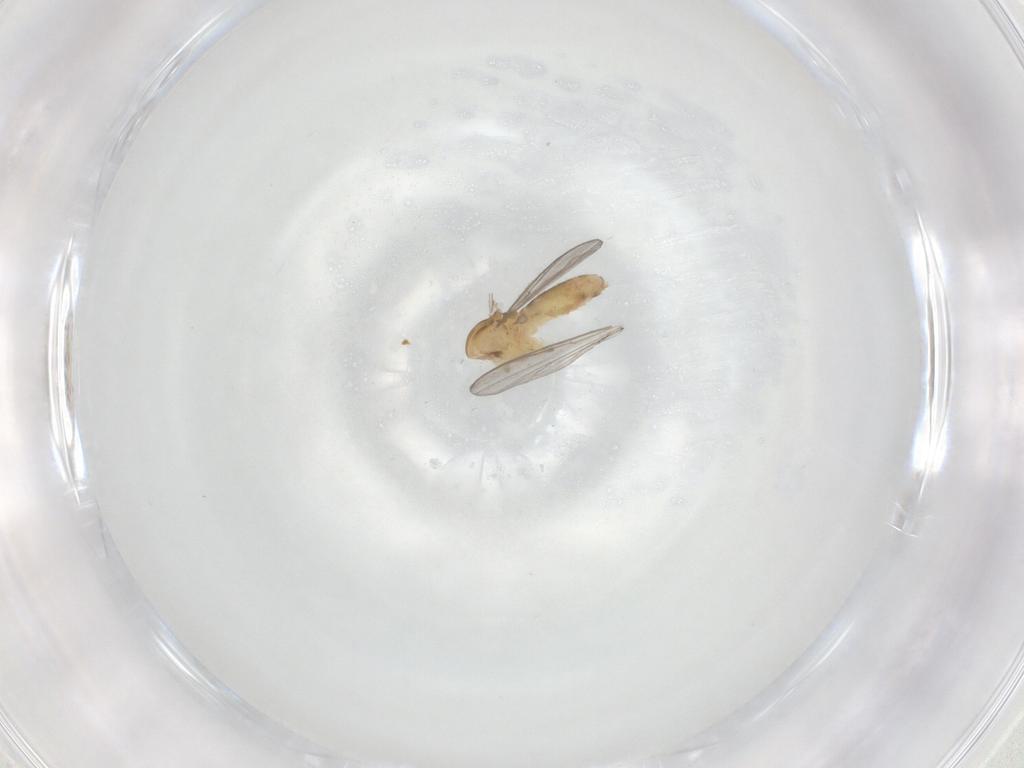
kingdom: Animalia
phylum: Arthropoda
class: Insecta
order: Diptera
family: Chironomidae
